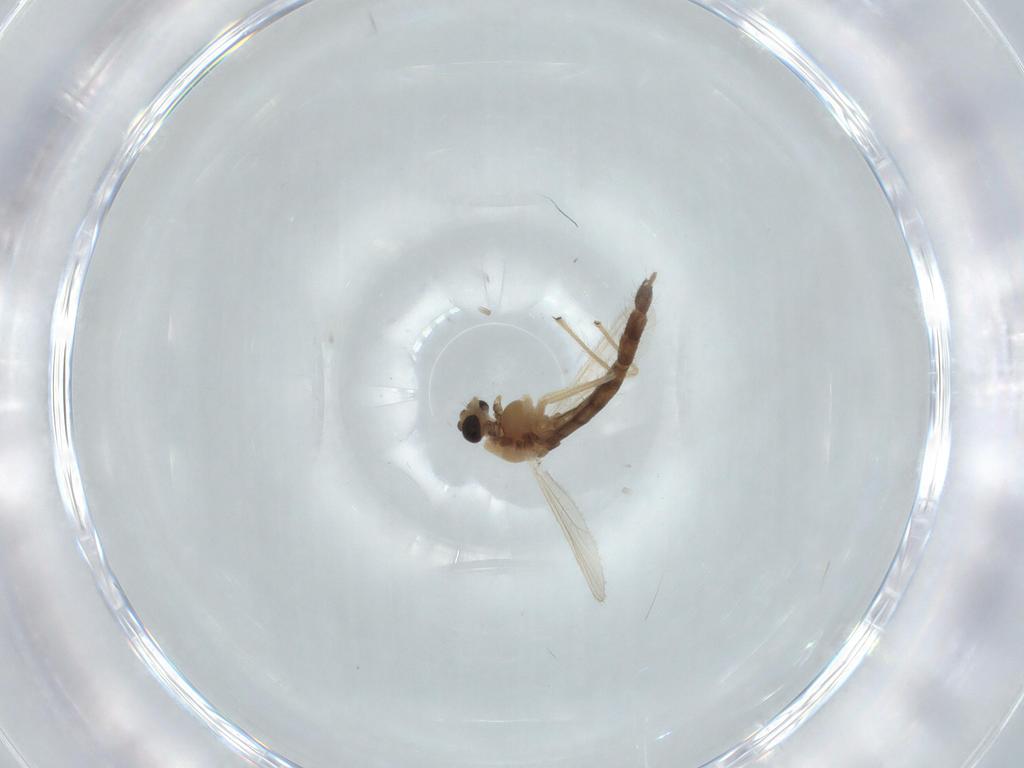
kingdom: Animalia
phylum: Arthropoda
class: Insecta
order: Diptera
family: Chironomidae
